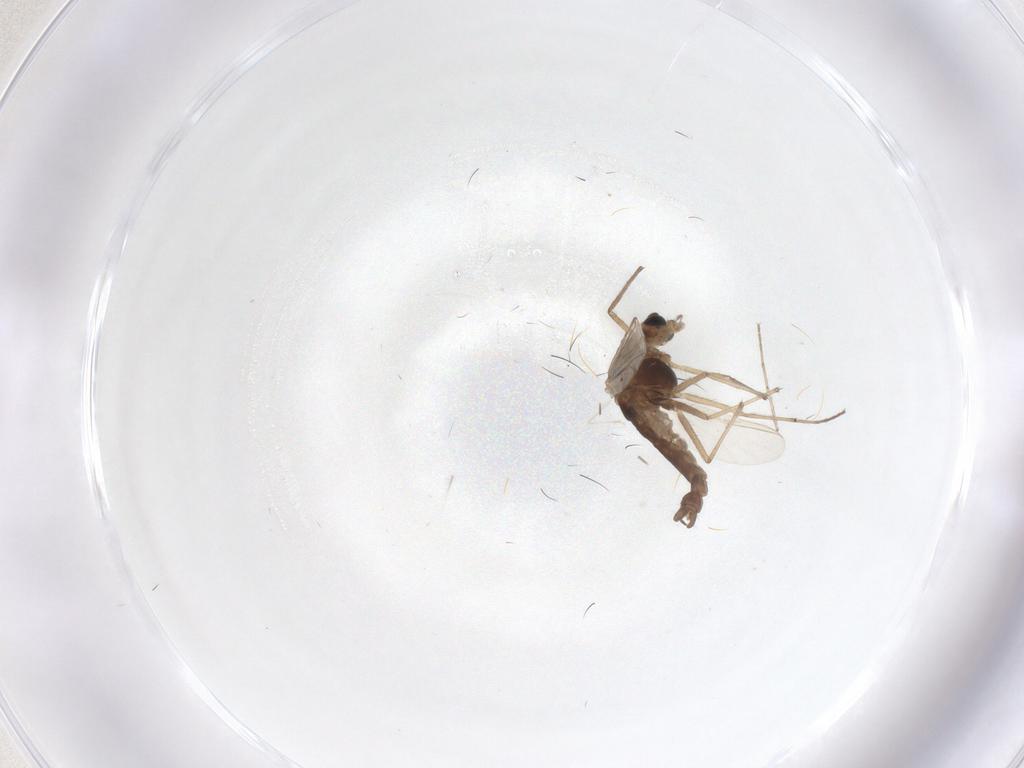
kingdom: Animalia
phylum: Arthropoda
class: Insecta
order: Diptera
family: Chironomidae
